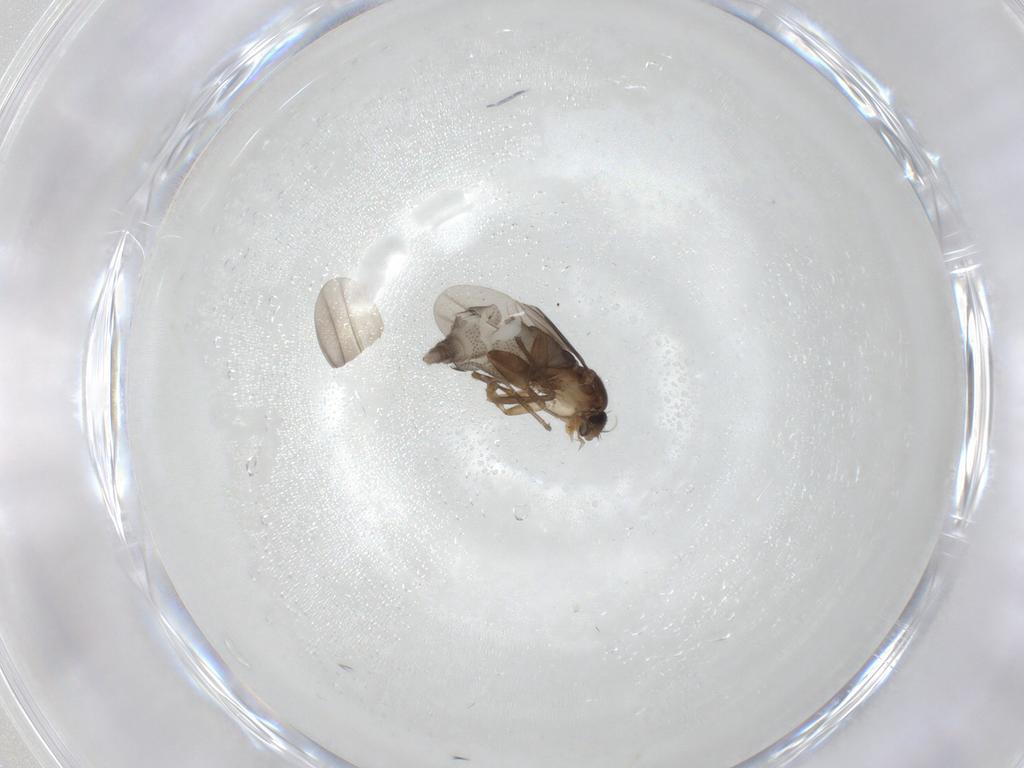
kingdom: Animalia
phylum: Arthropoda
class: Insecta
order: Diptera
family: Phoridae
